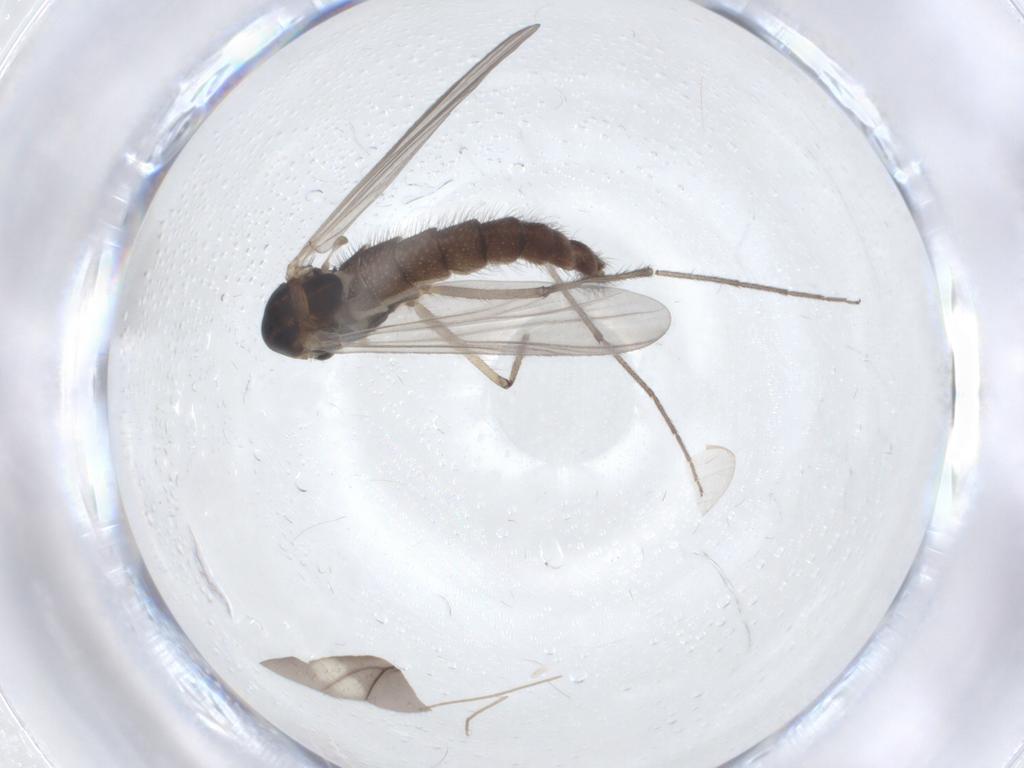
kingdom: Animalia
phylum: Arthropoda
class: Insecta
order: Diptera
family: Chironomidae
